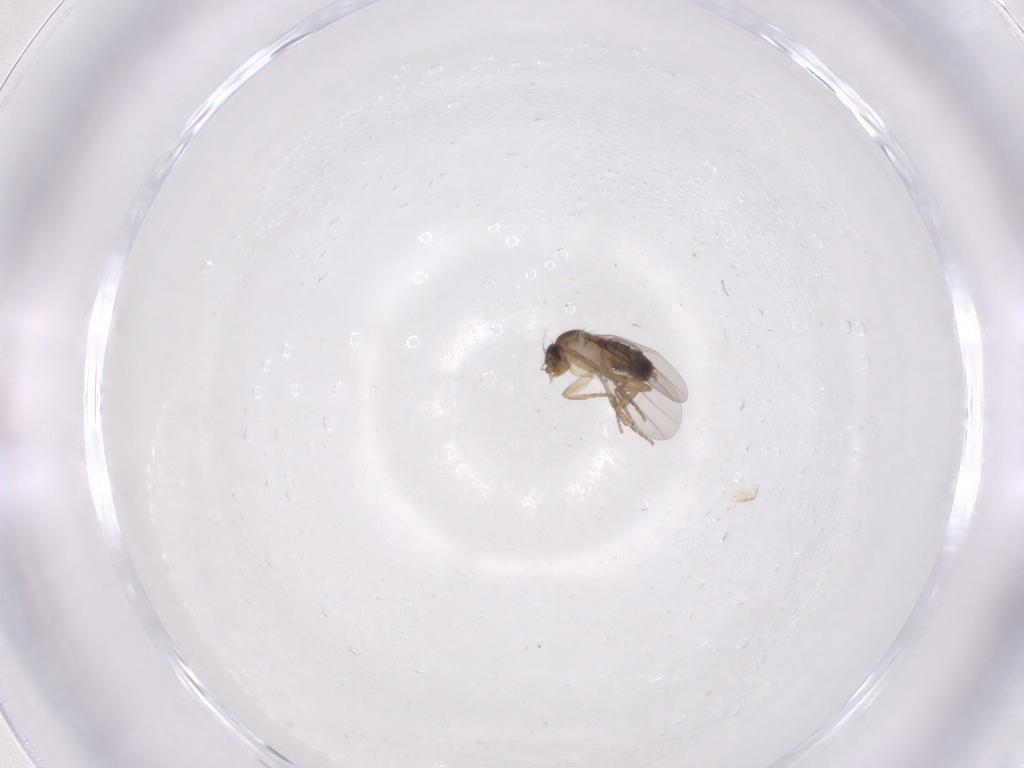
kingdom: Animalia
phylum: Arthropoda
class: Insecta
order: Diptera
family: Phoridae
